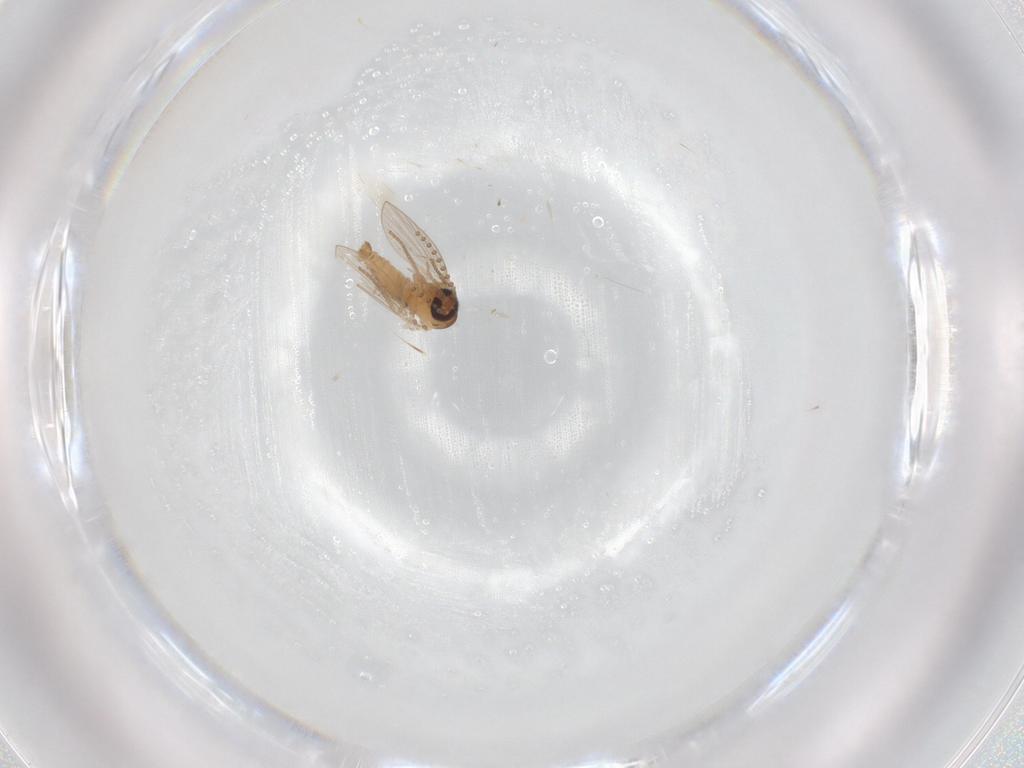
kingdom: Animalia
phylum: Arthropoda
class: Insecta
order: Diptera
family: Ceratopogonidae
